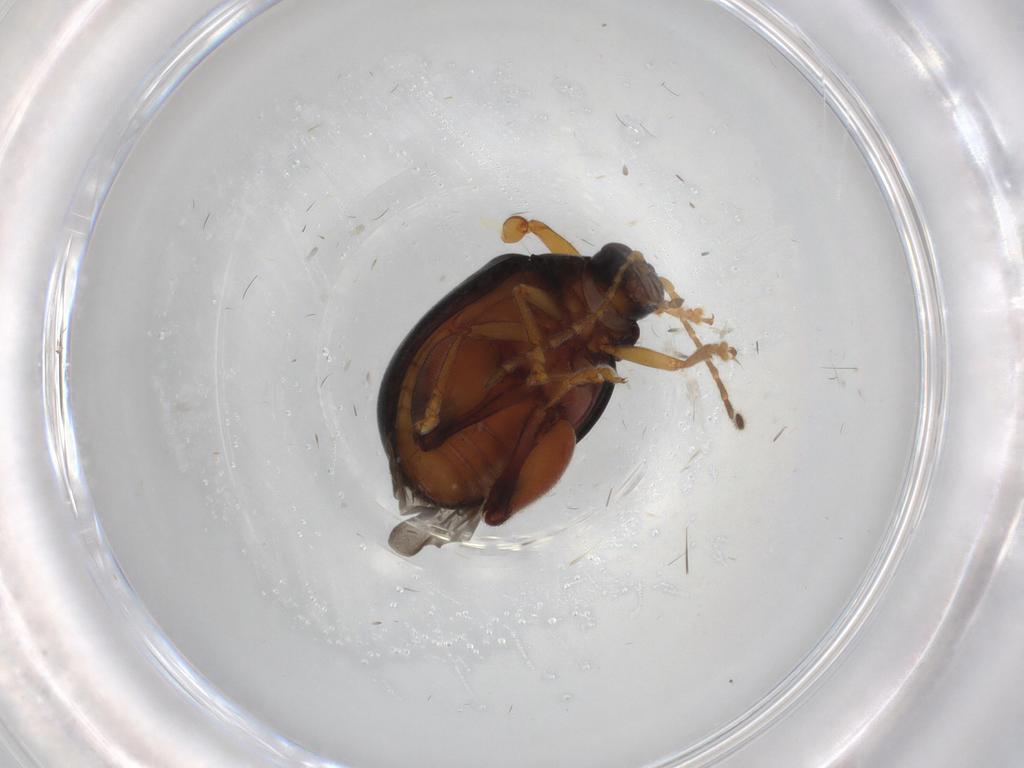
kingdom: Animalia
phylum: Arthropoda
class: Insecta
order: Coleoptera
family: Chrysomelidae
